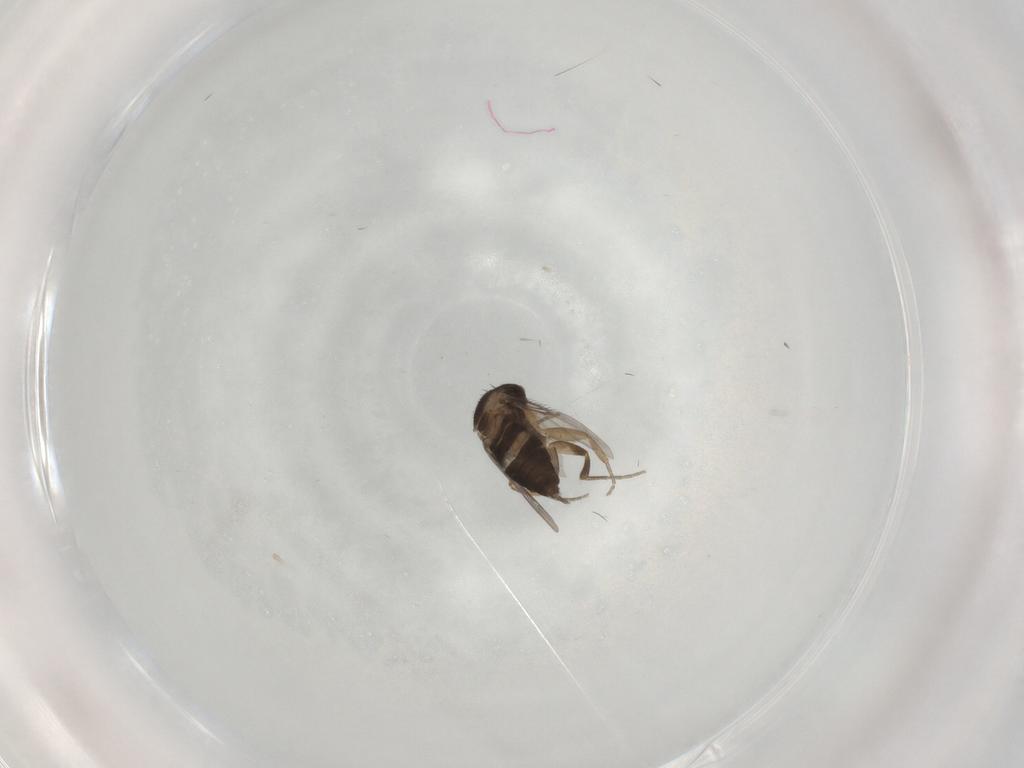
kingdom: Animalia
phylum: Arthropoda
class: Insecta
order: Diptera
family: Phoridae
